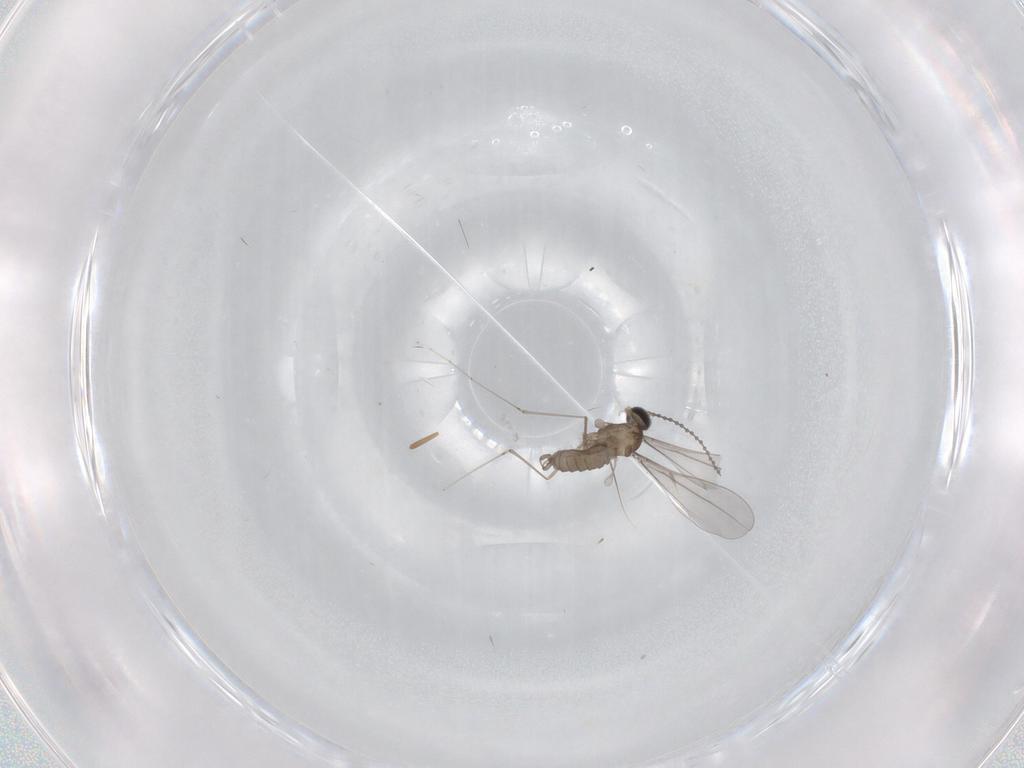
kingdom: Animalia
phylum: Arthropoda
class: Insecta
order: Diptera
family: Cecidomyiidae
